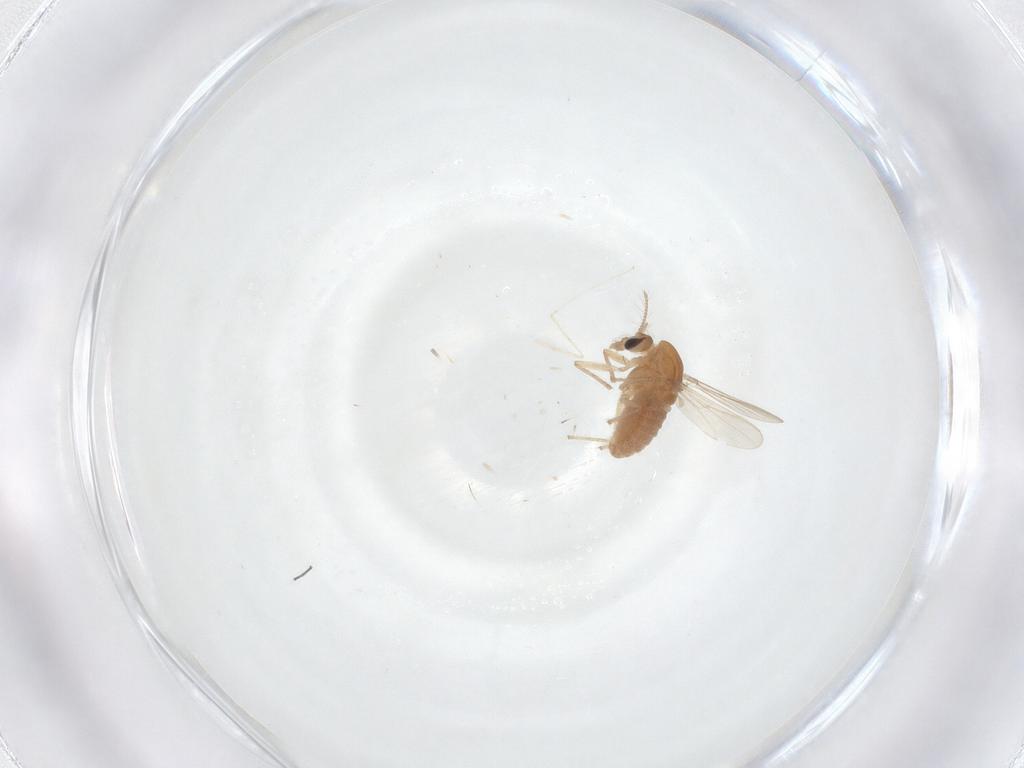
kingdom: Animalia
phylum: Arthropoda
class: Insecta
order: Diptera
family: Chironomidae
